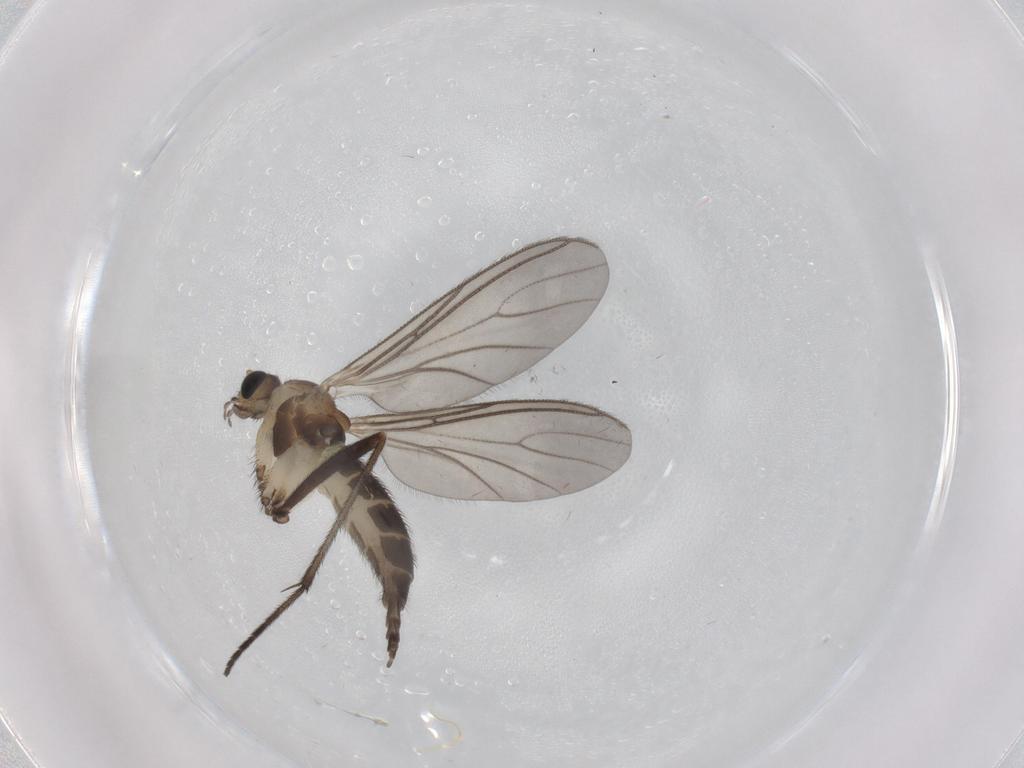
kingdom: Animalia
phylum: Arthropoda
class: Insecta
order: Diptera
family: Sciaridae
